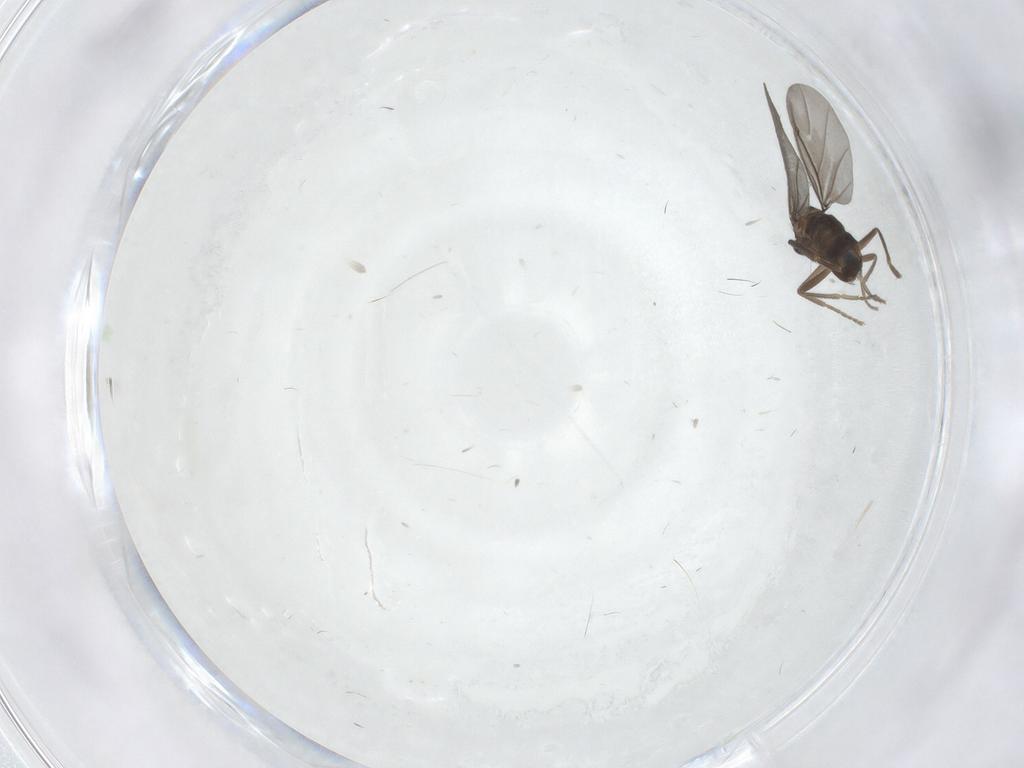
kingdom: Animalia
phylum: Arthropoda
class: Insecta
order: Diptera
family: Phoridae
